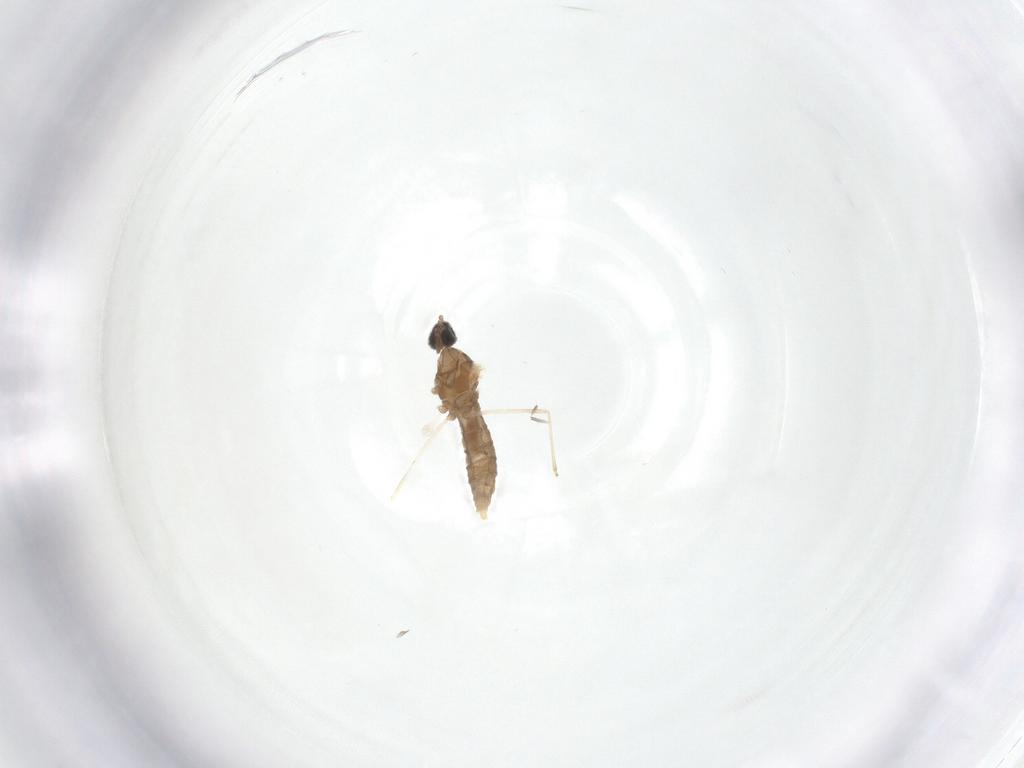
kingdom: Animalia
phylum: Arthropoda
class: Insecta
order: Diptera
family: Cecidomyiidae
